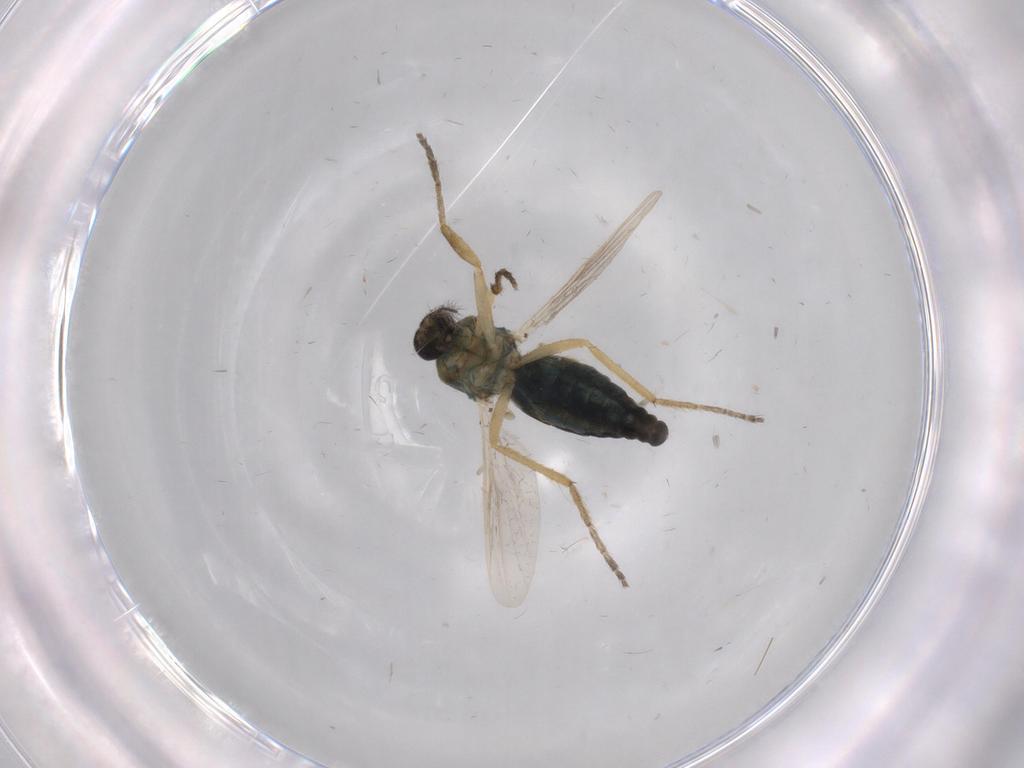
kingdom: Animalia
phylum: Arthropoda
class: Insecta
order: Diptera
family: Ceratopogonidae
